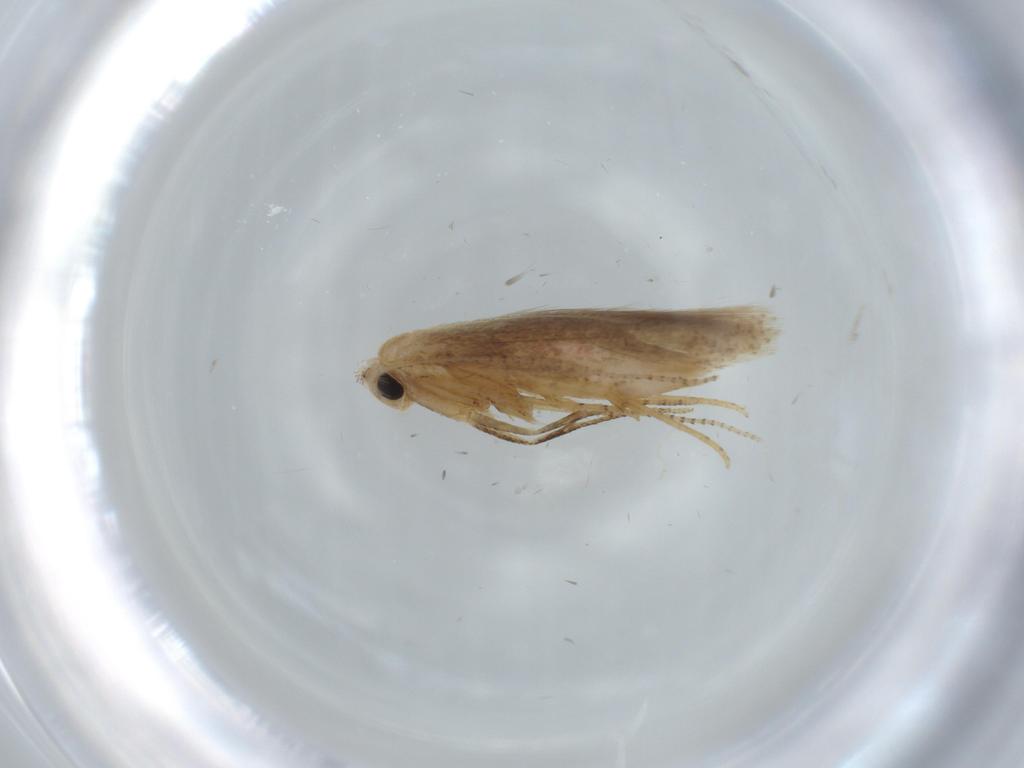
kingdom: Animalia
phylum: Arthropoda
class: Insecta
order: Lepidoptera
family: Bedelliidae
